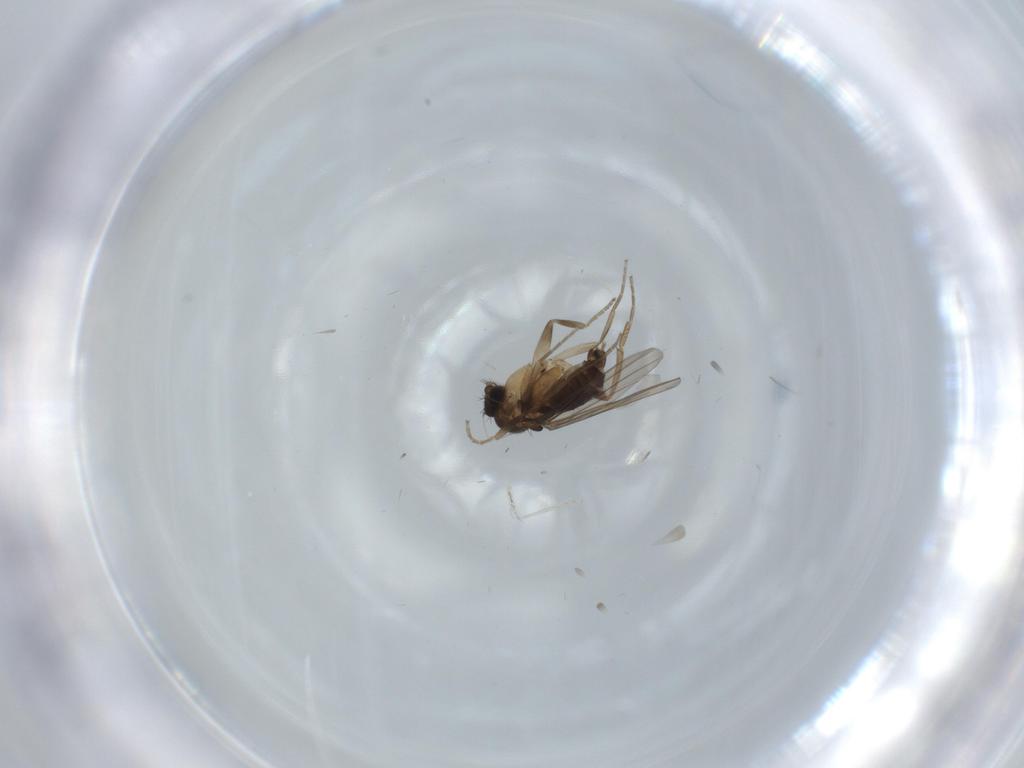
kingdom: Animalia
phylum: Arthropoda
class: Insecta
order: Diptera
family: Phoridae
